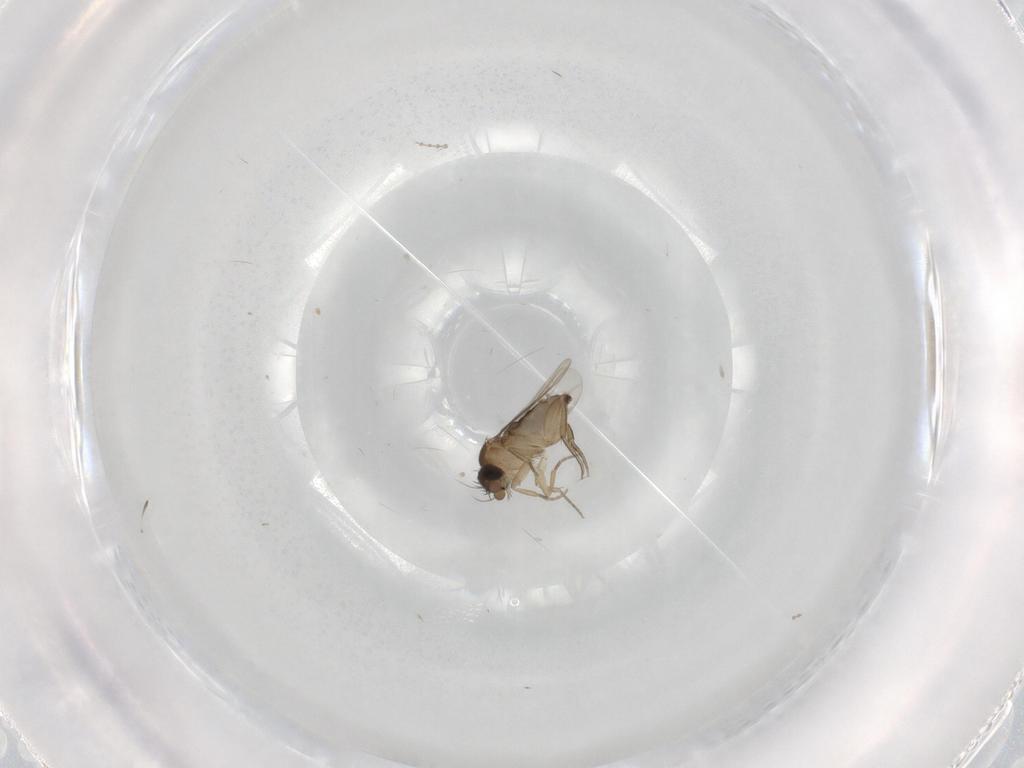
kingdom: Animalia
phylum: Arthropoda
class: Insecta
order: Diptera
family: Phoridae
